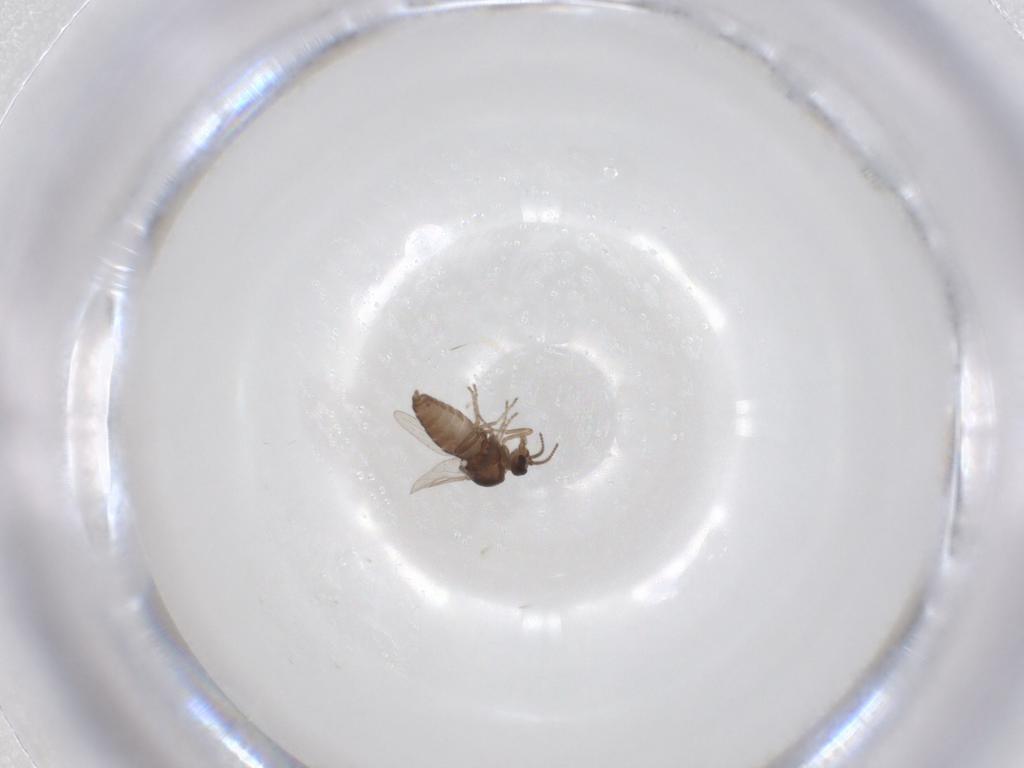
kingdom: Animalia
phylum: Arthropoda
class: Insecta
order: Diptera
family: Ceratopogonidae
